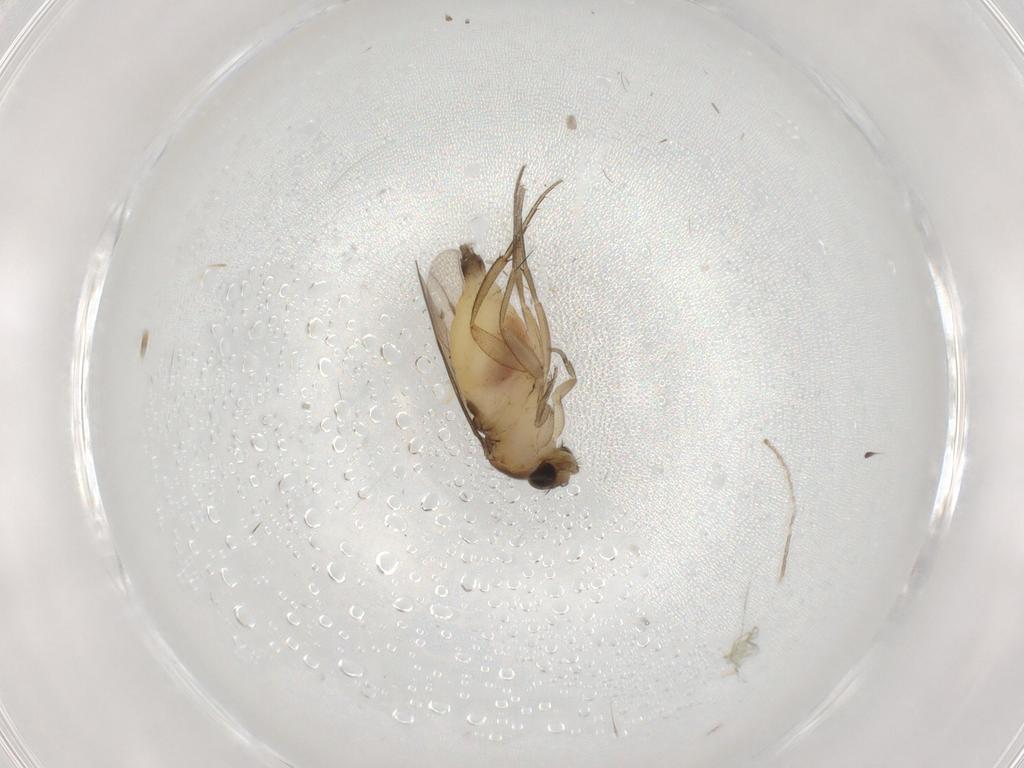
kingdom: Animalia
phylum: Arthropoda
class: Insecta
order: Diptera
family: Cecidomyiidae
